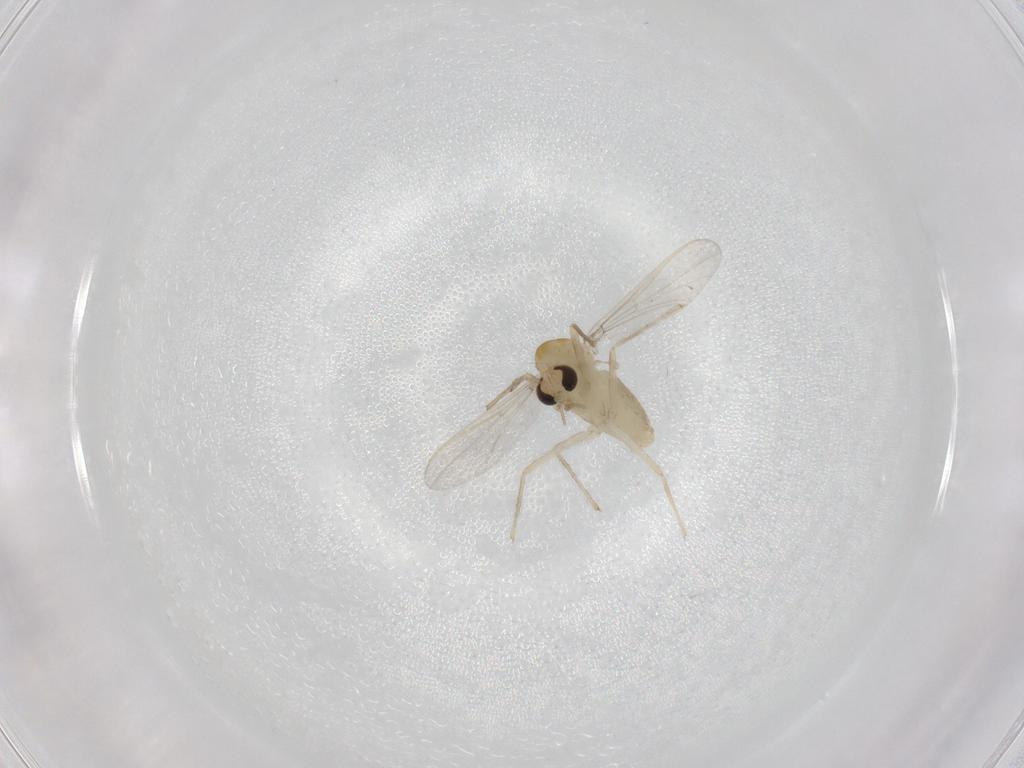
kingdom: Animalia
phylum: Arthropoda
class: Insecta
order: Diptera
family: Chironomidae
